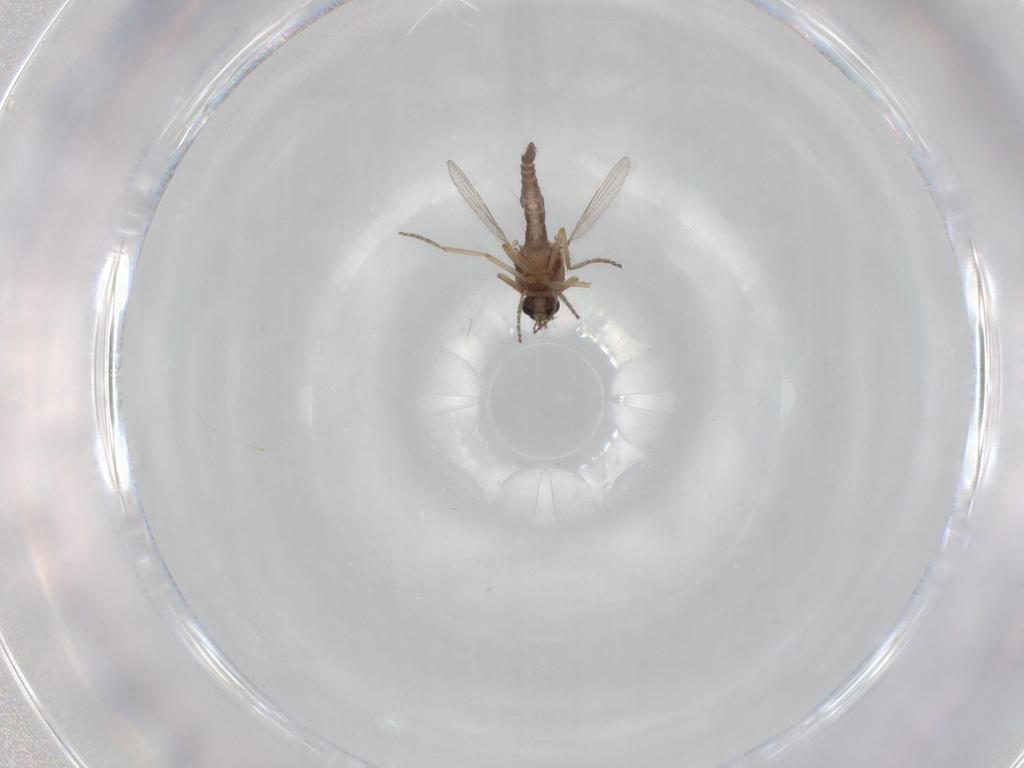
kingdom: Animalia
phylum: Arthropoda
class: Insecta
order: Diptera
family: Ceratopogonidae
